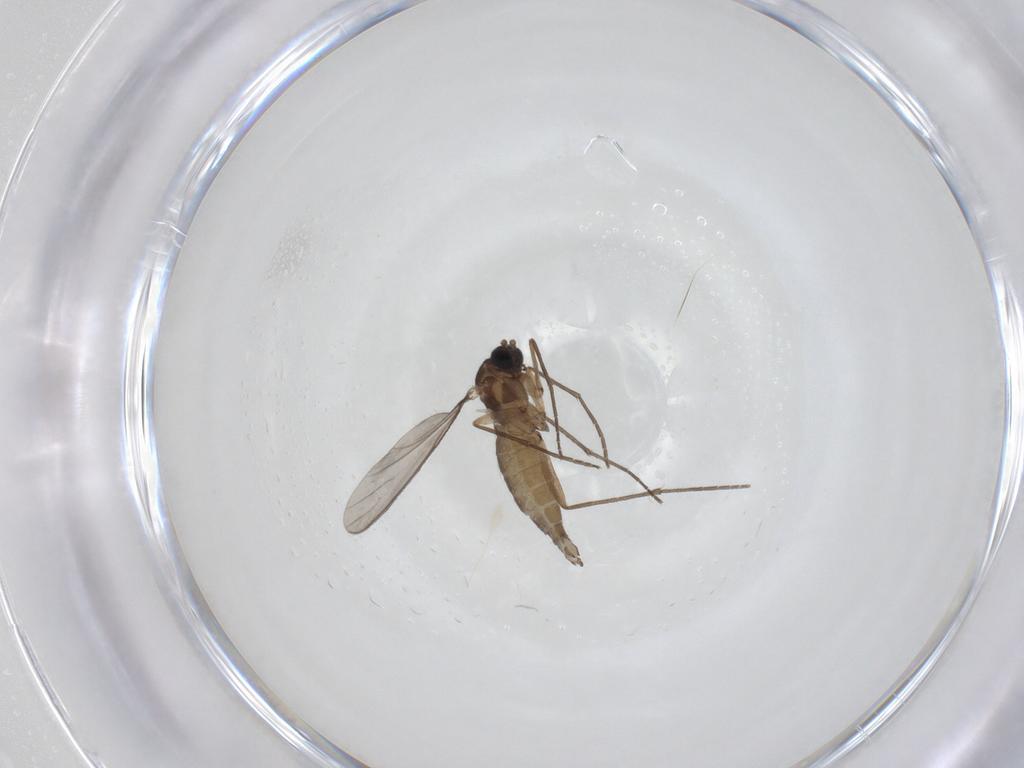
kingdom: Animalia
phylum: Arthropoda
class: Insecta
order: Diptera
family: Sciaridae
